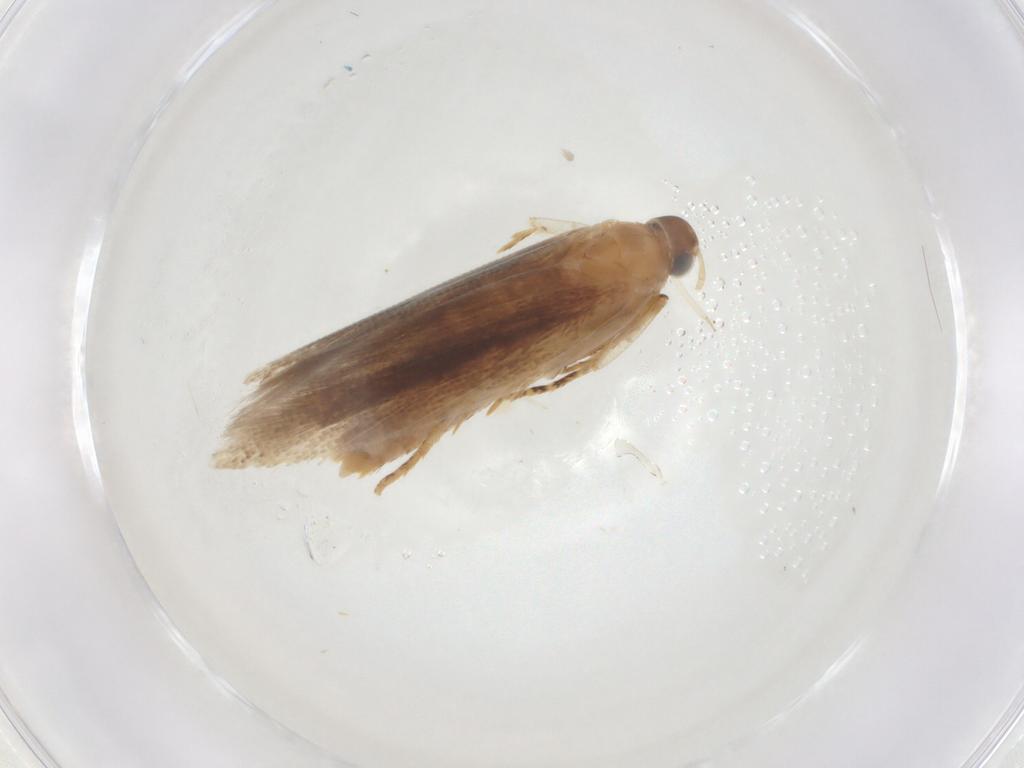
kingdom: Animalia
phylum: Arthropoda
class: Insecta
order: Lepidoptera
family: Gelechiidae
